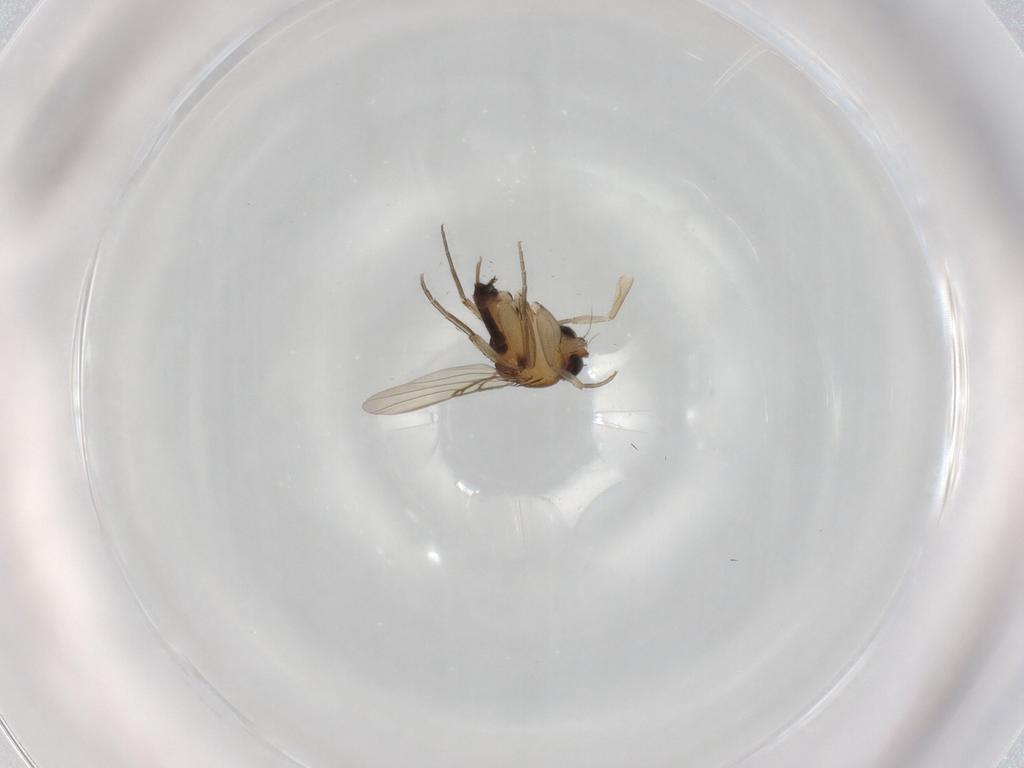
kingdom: Animalia
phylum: Arthropoda
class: Insecta
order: Diptera
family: Phoridae
